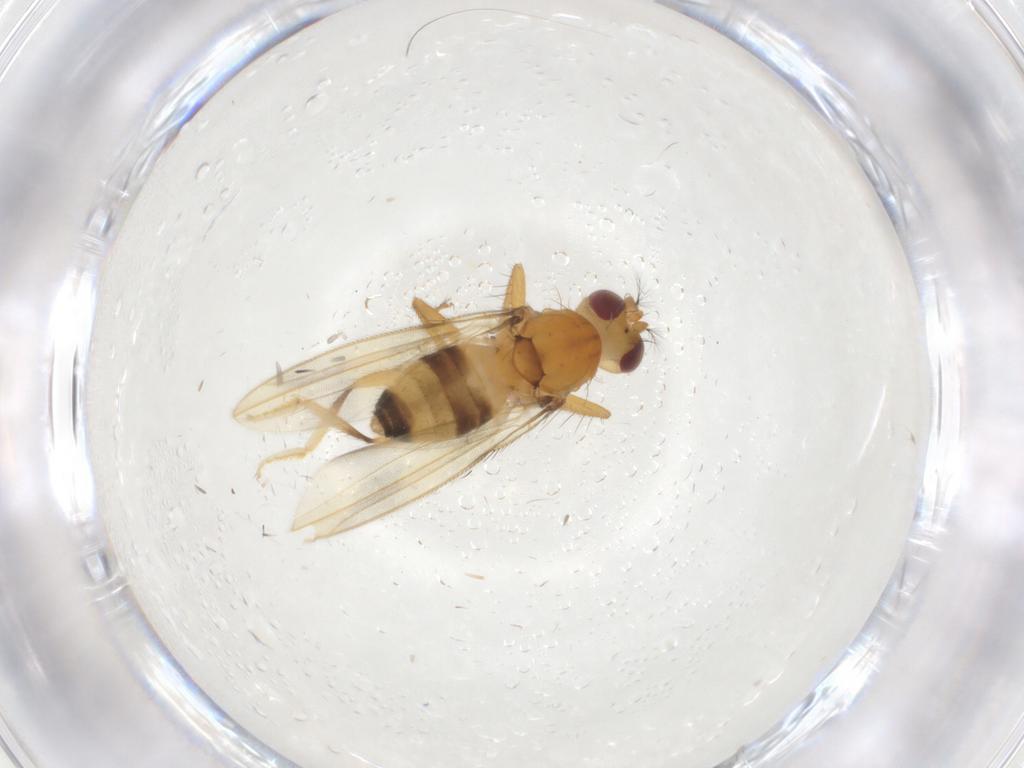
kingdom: Animalia
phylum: Arthropoda
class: Insecta
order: Diptera
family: Periscelididae
